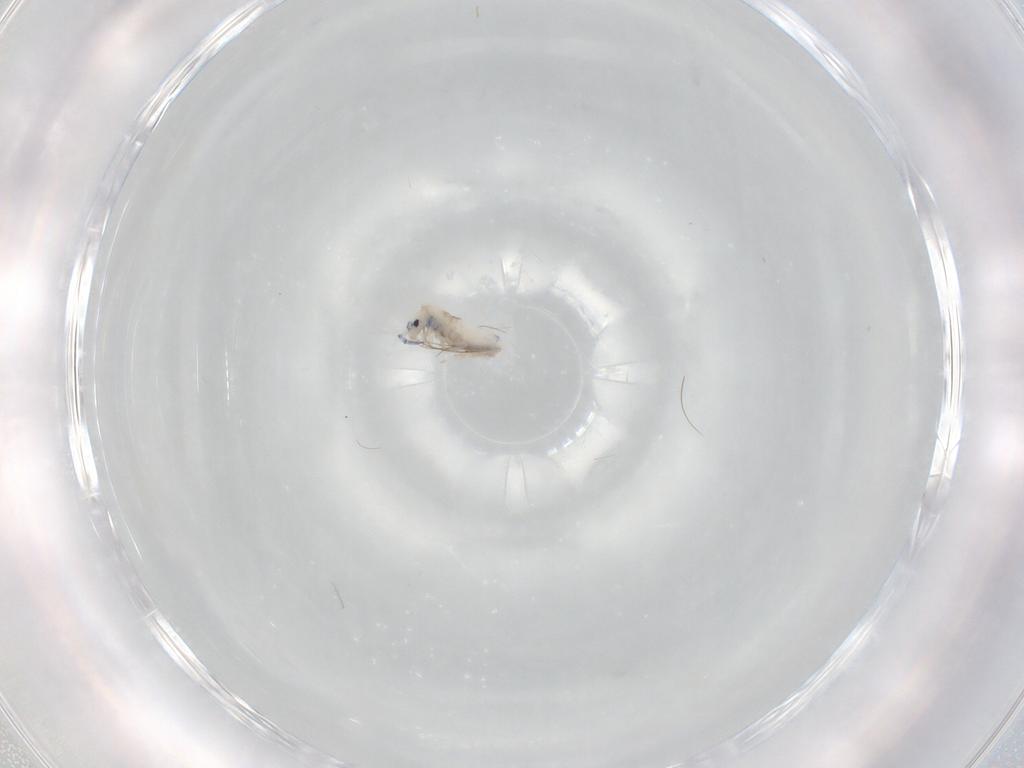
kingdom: Animalia
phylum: Arthropoda
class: Collembola
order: Entomobryomorpha
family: Entomobryidae
